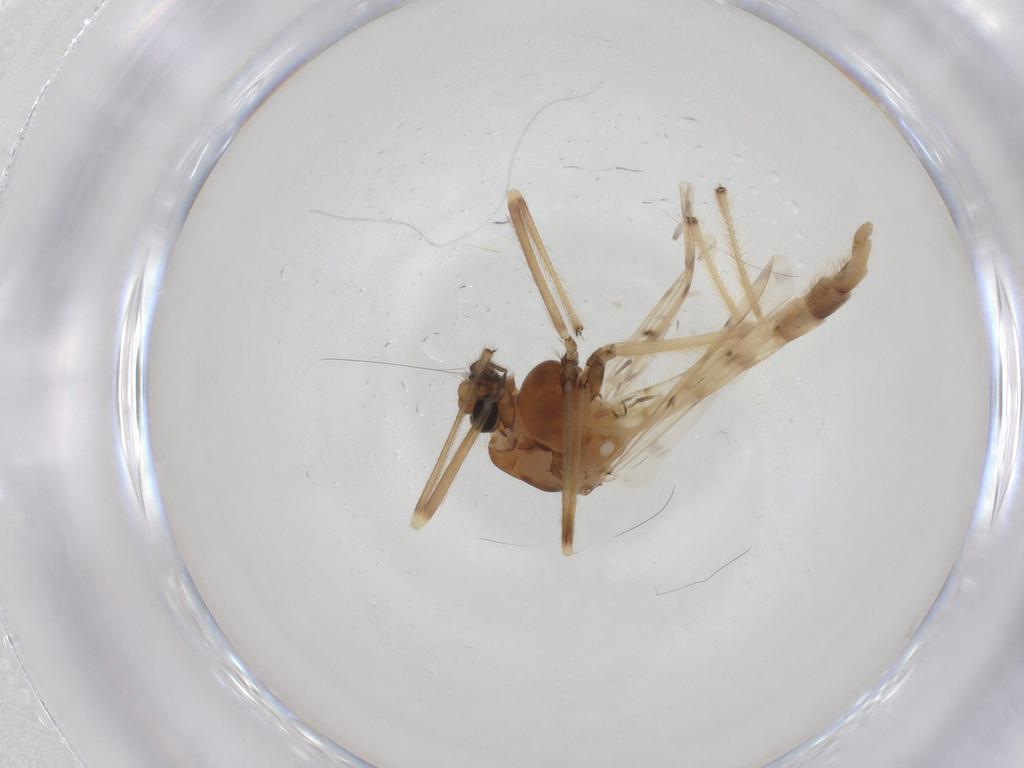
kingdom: Animalia
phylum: Arthropoda
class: Insecta
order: Diptera
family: Chironomidae
